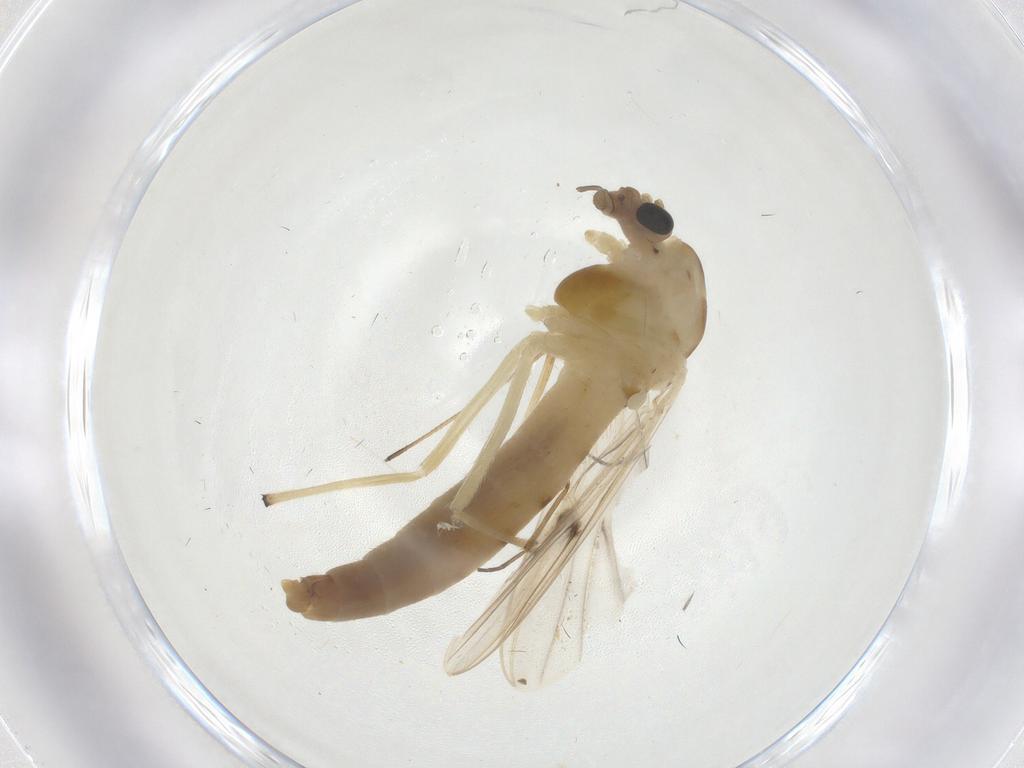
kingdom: Animalia
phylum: Arthropoda
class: Insecta
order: Diptera
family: Chironomidae
